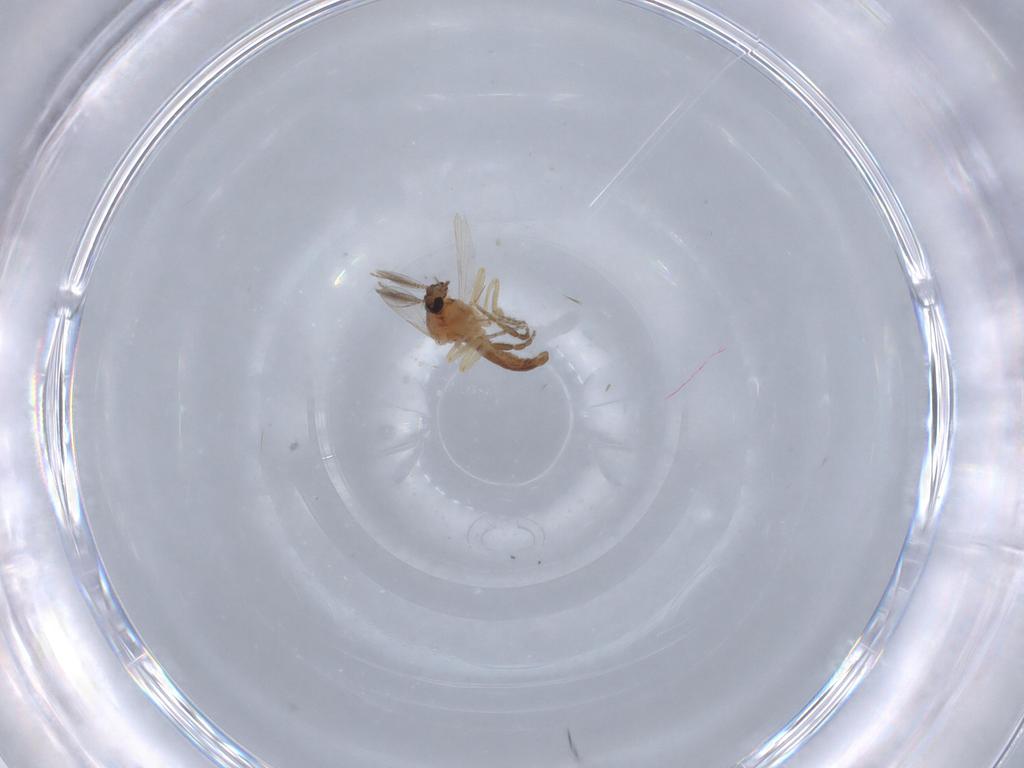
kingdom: Animalia
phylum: Arthropoda
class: Insecta
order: Diptera
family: Ceratopogonidae
